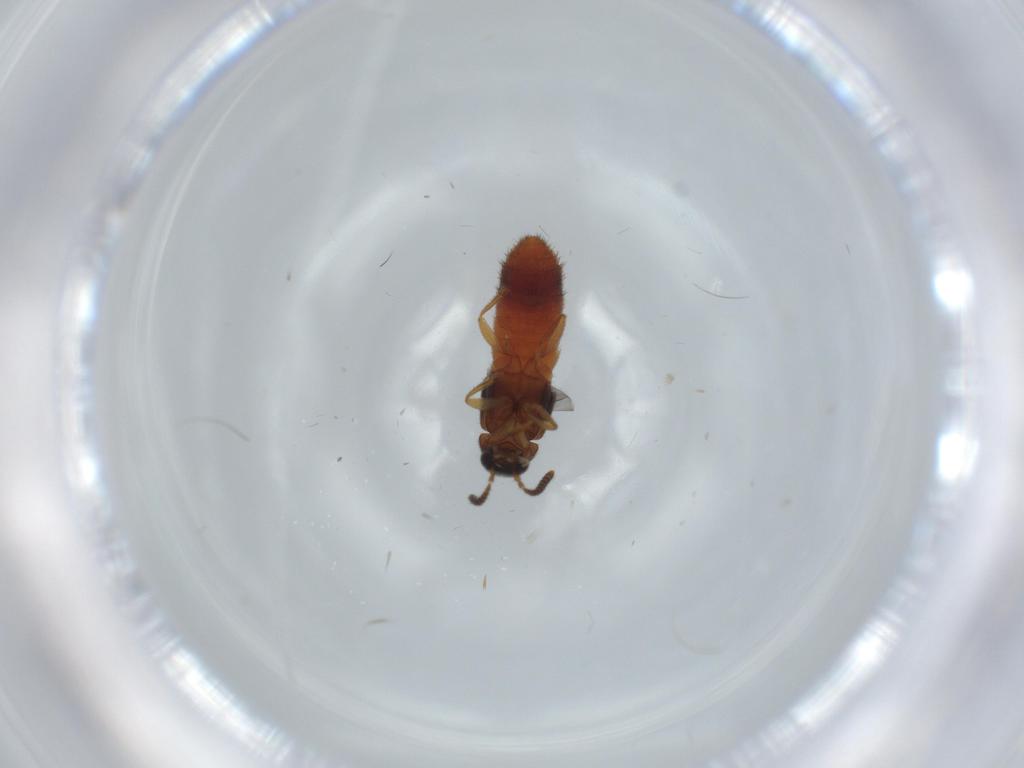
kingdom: Animalia
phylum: Arthropoda
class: Insecta
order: Coleoptera
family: Staphylinidae
